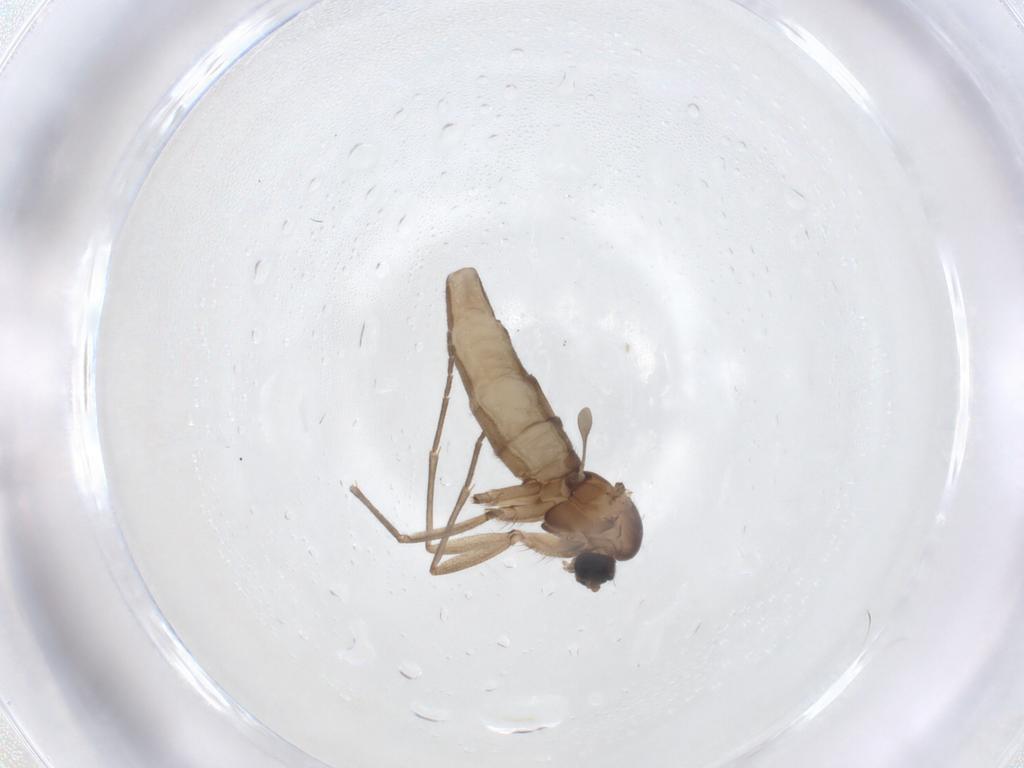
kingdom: Animalia
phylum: Arthropoda
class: Insecta
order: Diptera
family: Sciaridae
